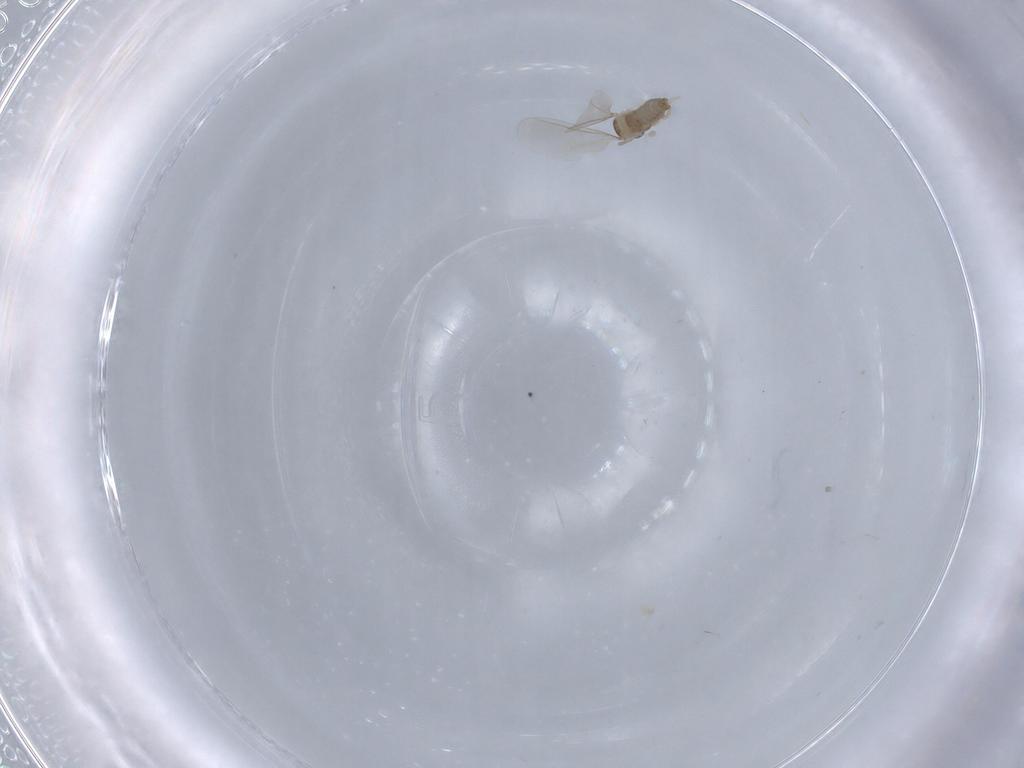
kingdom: Animalia
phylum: Arthropoda
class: Insecta
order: Diptera
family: Cecidomyiidae
